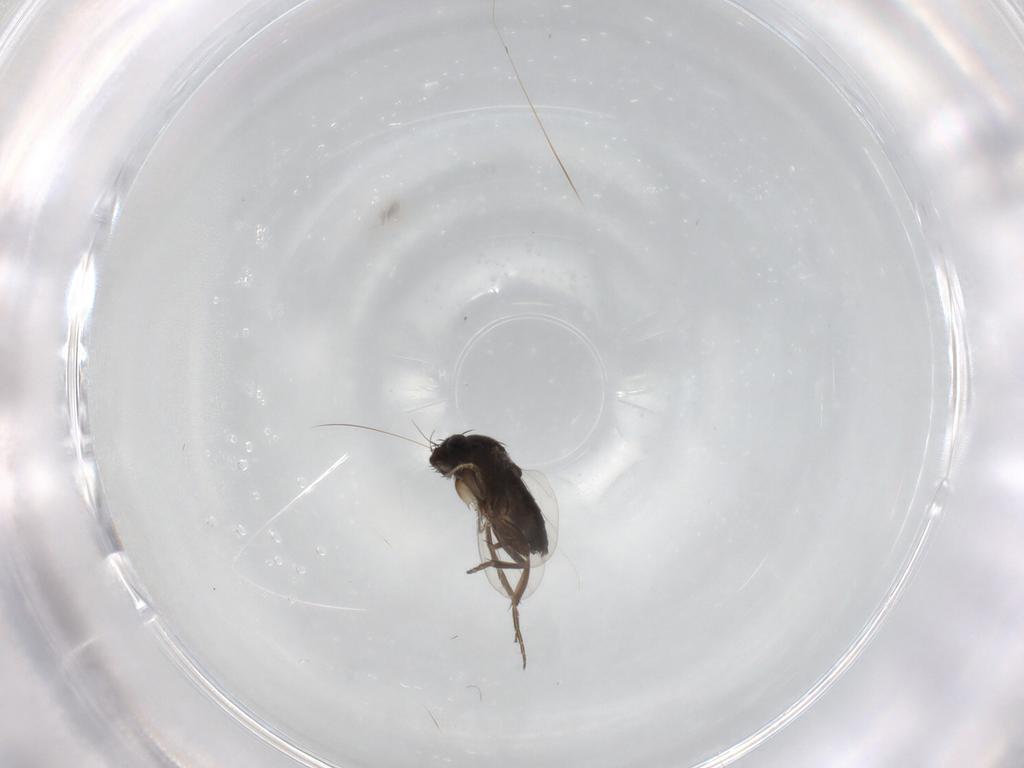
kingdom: Animalia
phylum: Arthropoda
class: Insecta
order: Diptera
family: Phoridae
